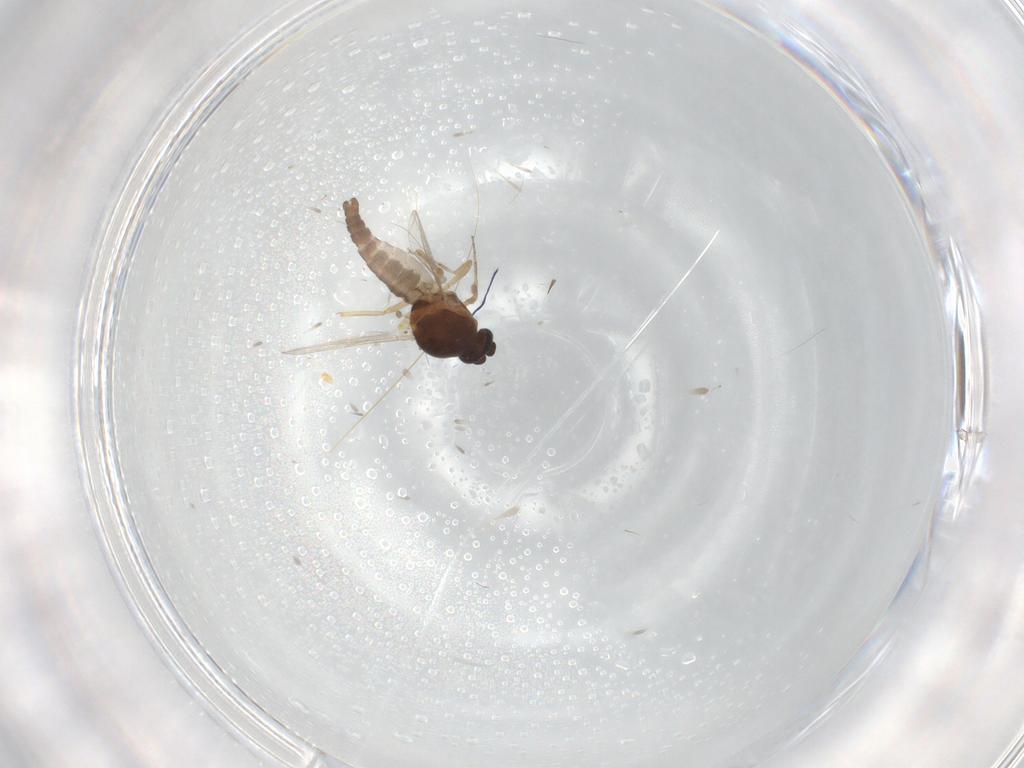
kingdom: Animalia
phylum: Arthropoda
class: Insecta
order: Diptera
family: Ceratopogonidae
